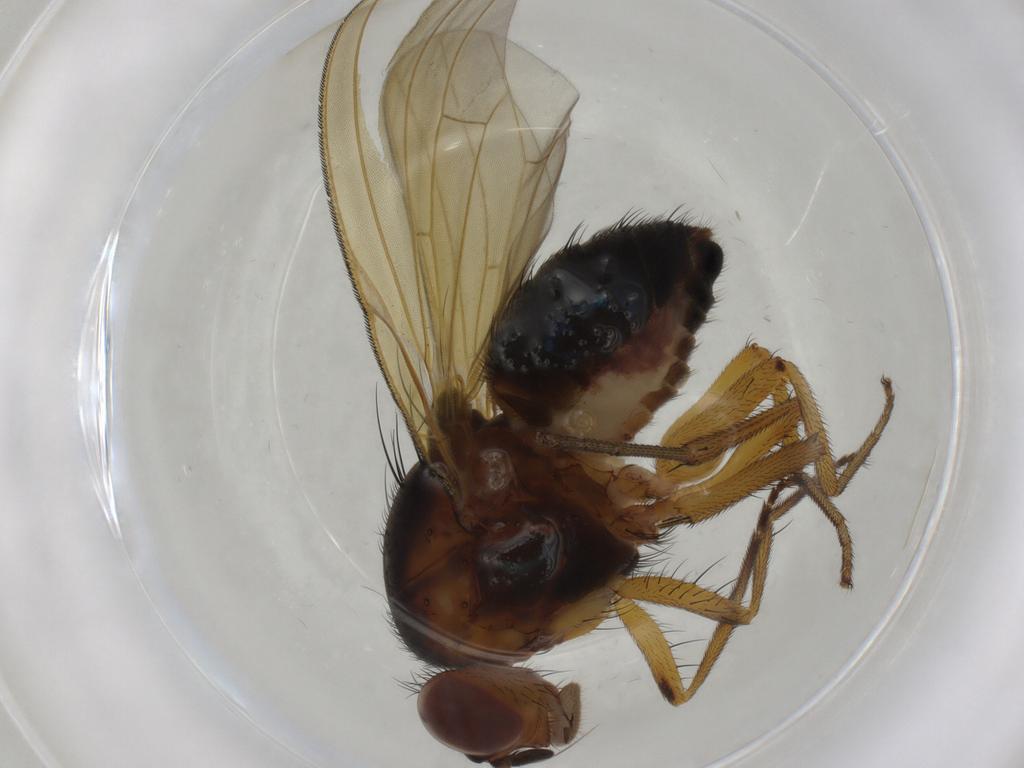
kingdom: Animalia
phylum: Arthropoda
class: Insecta
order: Diptera
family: Lauxaniidae
